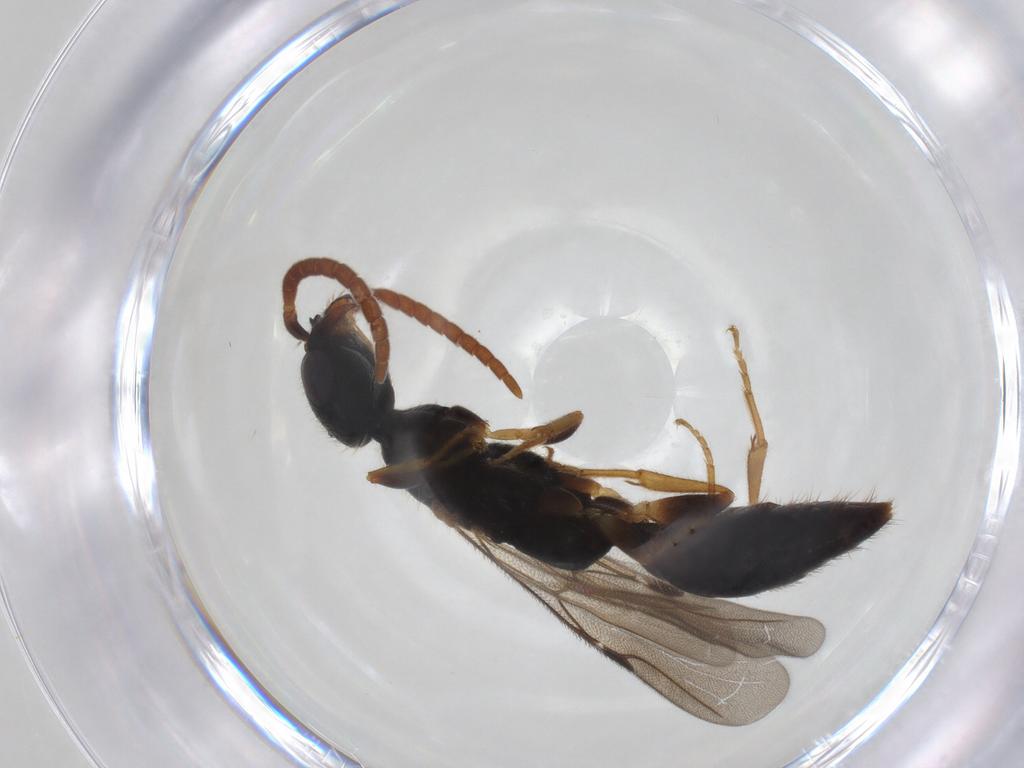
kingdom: Animalia
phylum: Arthropoda
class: Insecta
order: Hymenoptera
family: Bethylidae
